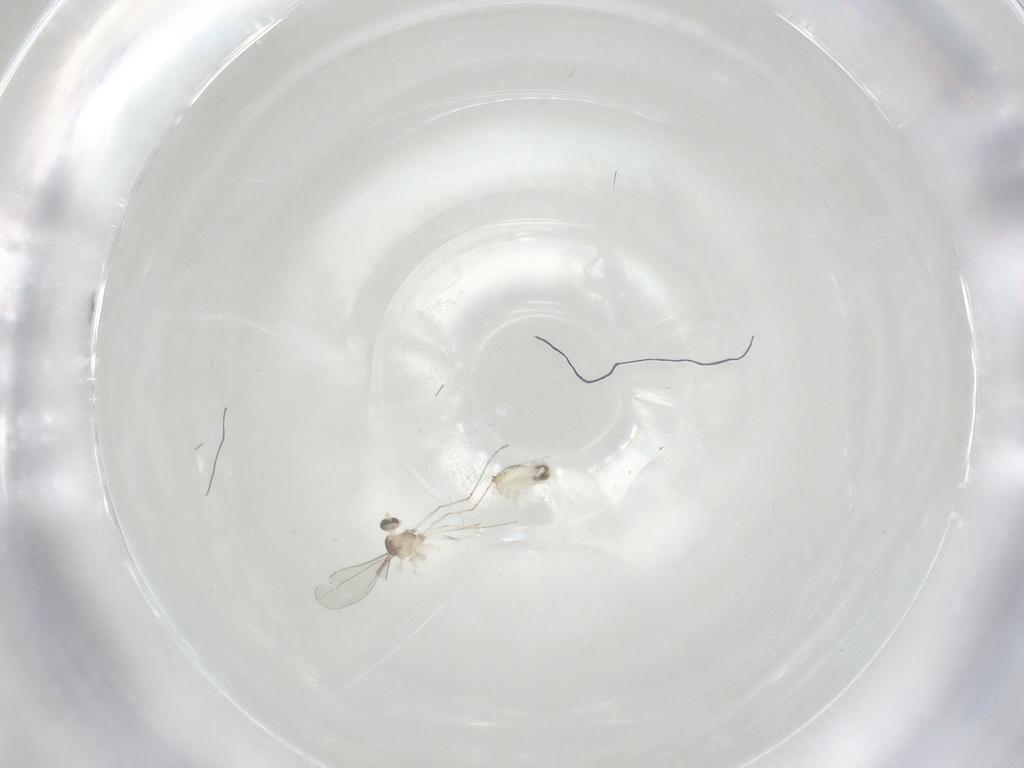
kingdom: Animalia
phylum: Arthropoda
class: Insecta
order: Diptera
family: Cecidomyiidae
